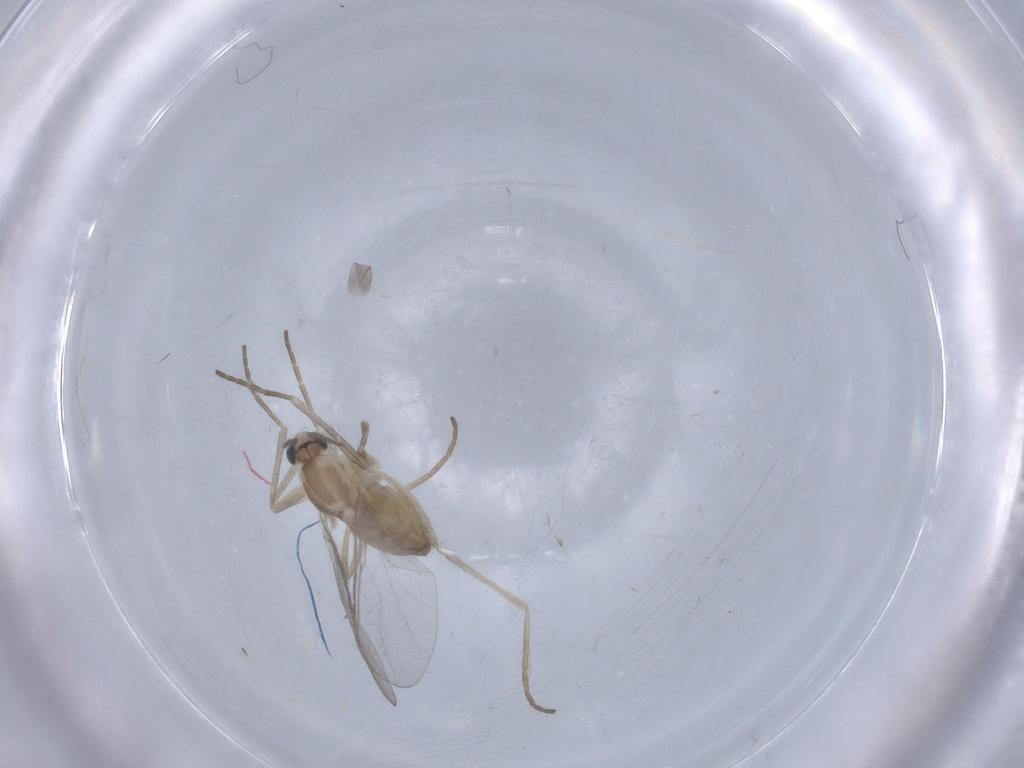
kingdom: Animalia
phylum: Arthropoda
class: Insecta
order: Diptera
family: Cecidomyiidae
